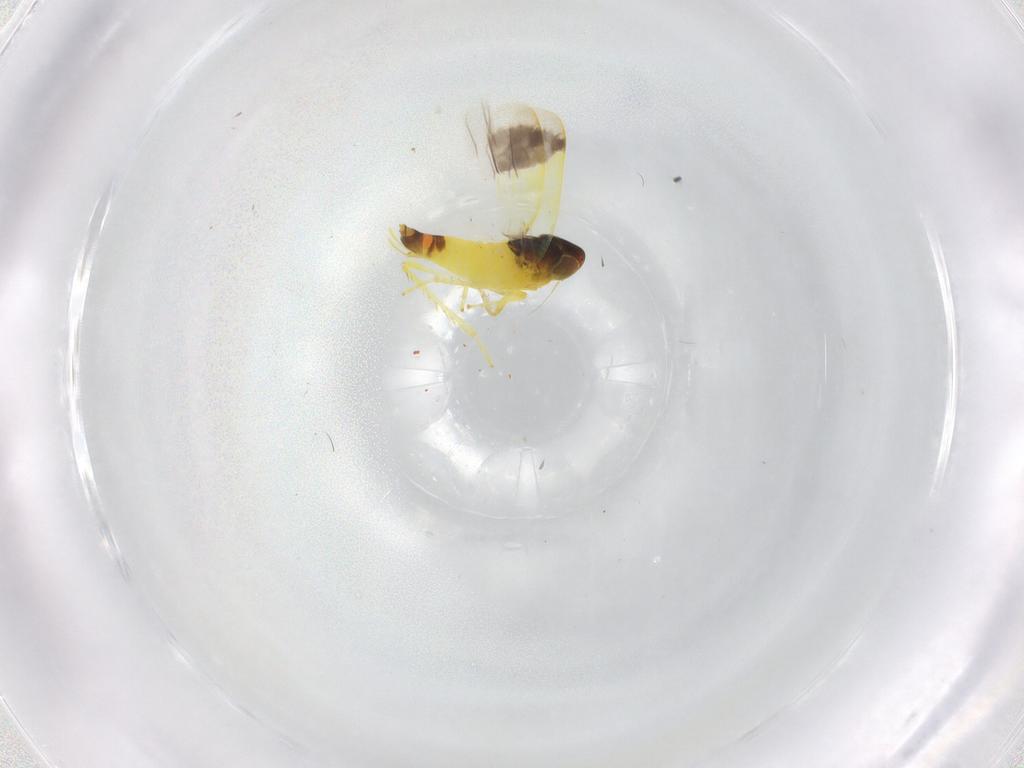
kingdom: Animalia
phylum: Arthropoda
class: Insecta
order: Hemiptera
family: Cicadellidae
